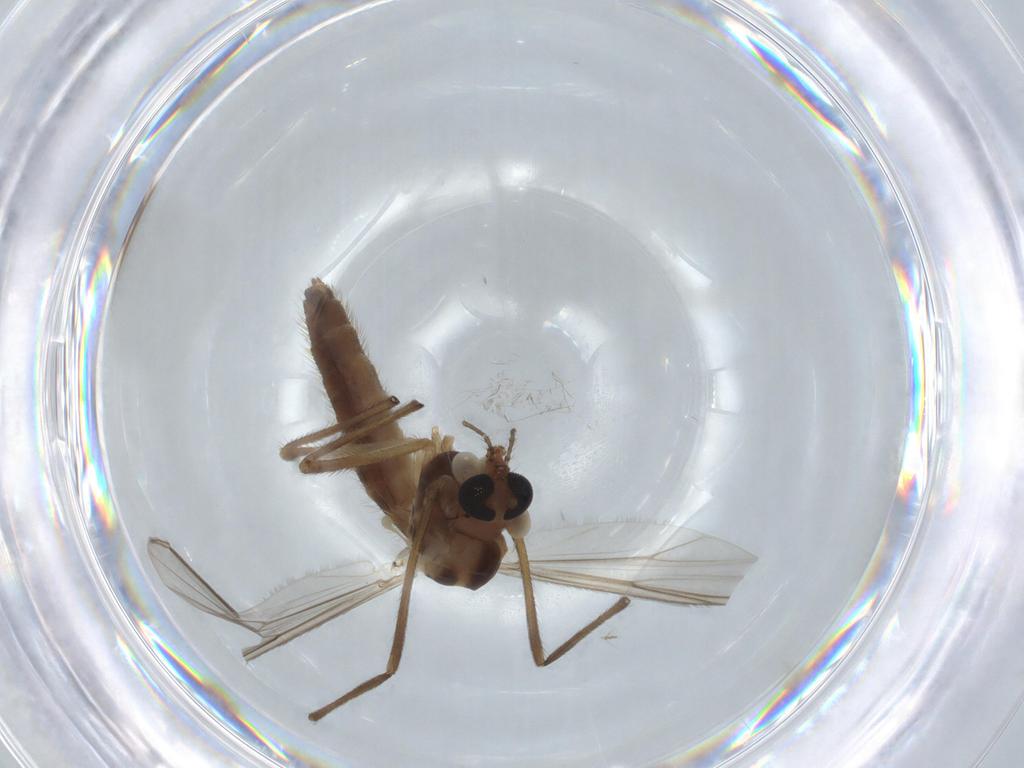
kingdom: Animalia
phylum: Arthropoda
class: Insecta
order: Diptera
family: Chironomidae
